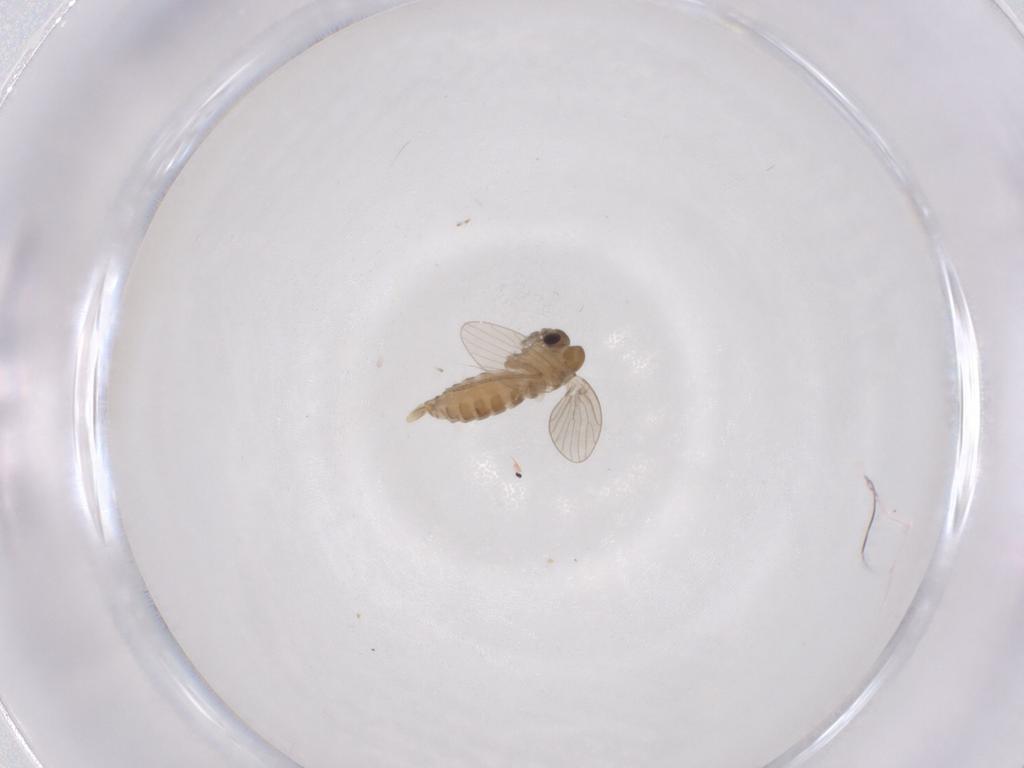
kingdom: Animalia
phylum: Arthropoda
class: Insecta
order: Diptera
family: Psychodidae
